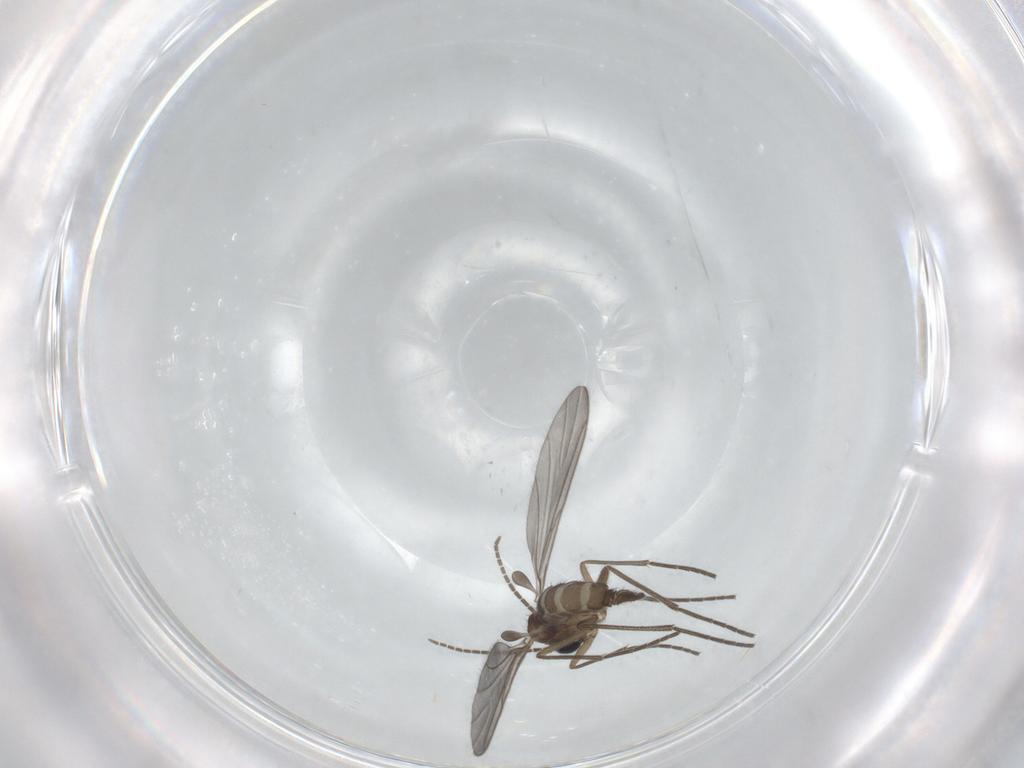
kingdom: Animalia
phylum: Arthropoda
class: Insecta
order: Diptera
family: Sciaridae
